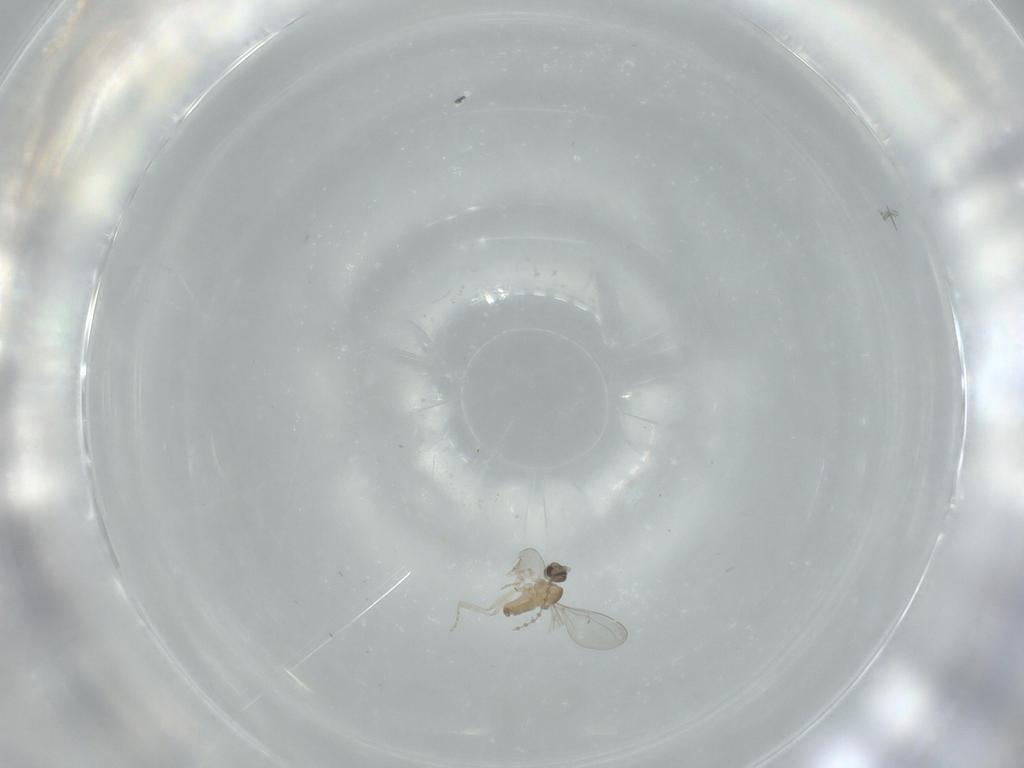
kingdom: Animalia
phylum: Arthropoda
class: Insecta
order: Diptera
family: Cecidomyiidae
